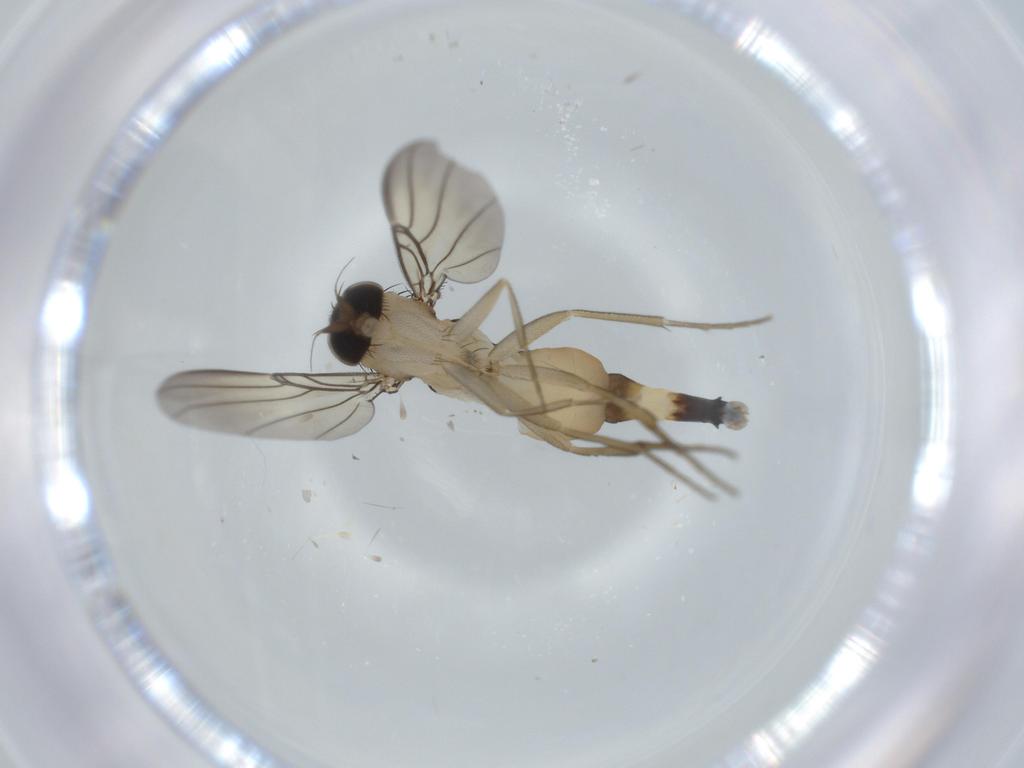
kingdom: Animalia
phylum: Arthropoda
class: Insecta
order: Diptera
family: Phoridae
